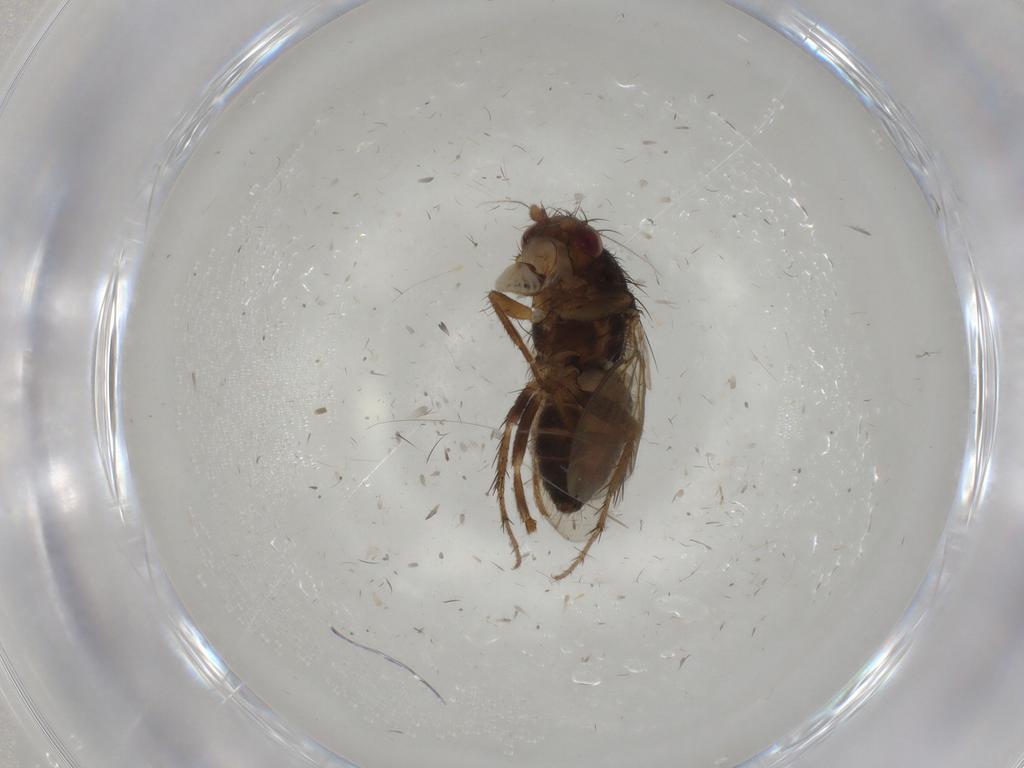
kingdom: Animalia
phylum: Arthropoda
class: Insecta
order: Diptera
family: Sphaeroceridae
